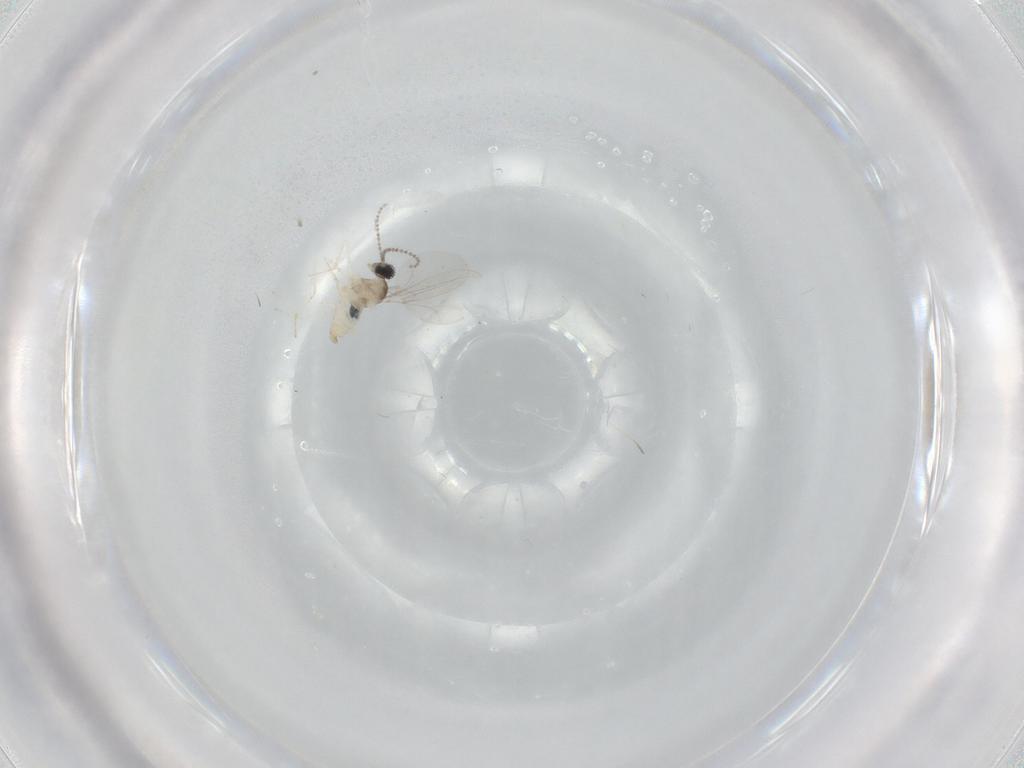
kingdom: Animalia
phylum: Arthropoda
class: Insecta
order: Diptera
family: Cecidomyiidae
